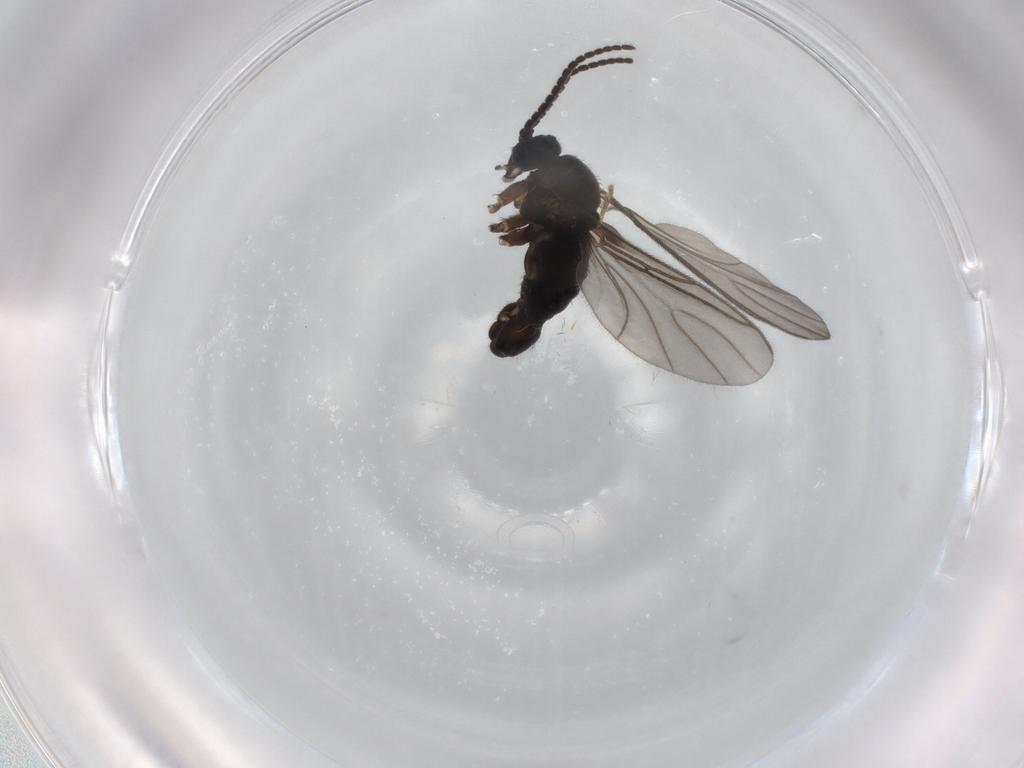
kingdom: Animalia
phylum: Arthropoda
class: Insecta
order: Diptera
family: Sciaridae
